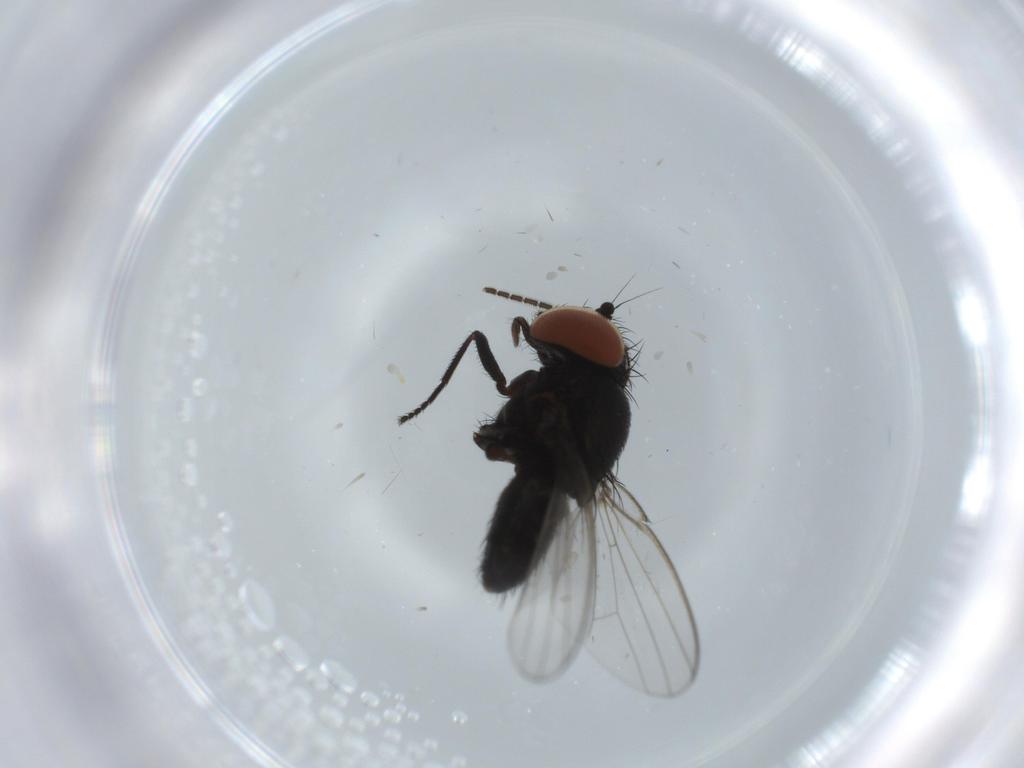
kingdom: Animalia
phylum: Arthropoda
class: Insecta
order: Diptera
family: Milichiidae
